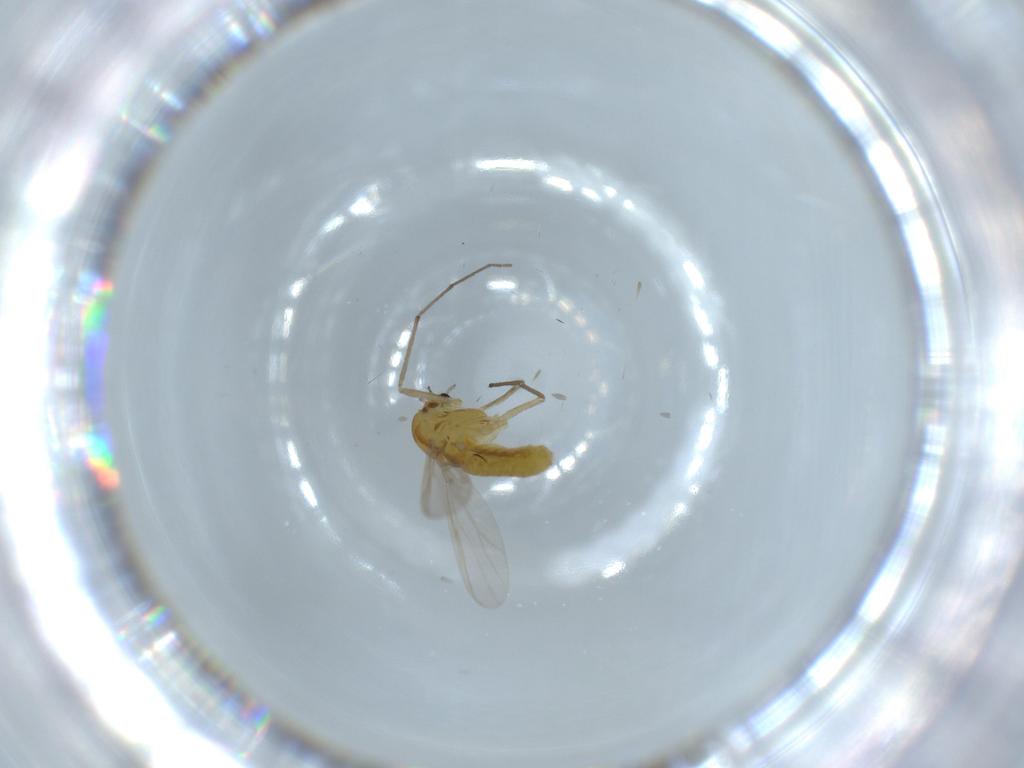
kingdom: Animalia
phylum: Arthropoda
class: Insecta
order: Diptera
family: Chironomidae
